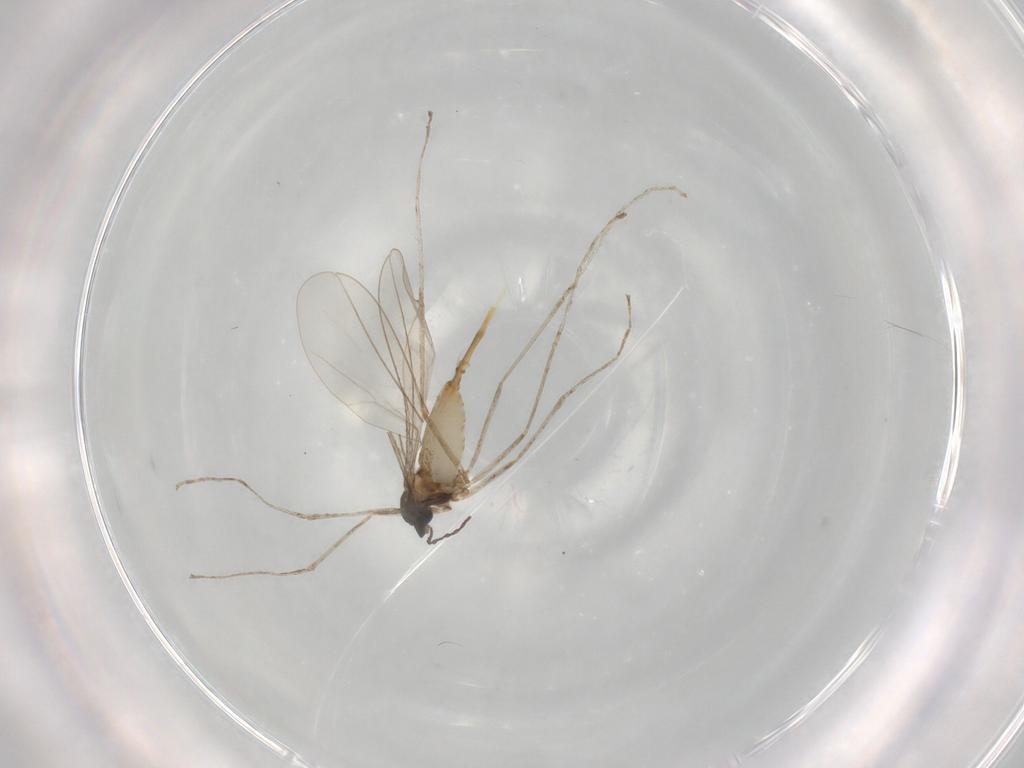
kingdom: Animalia
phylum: Arthropoda
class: Insecta
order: Diptera
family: Cecidomyiidae
